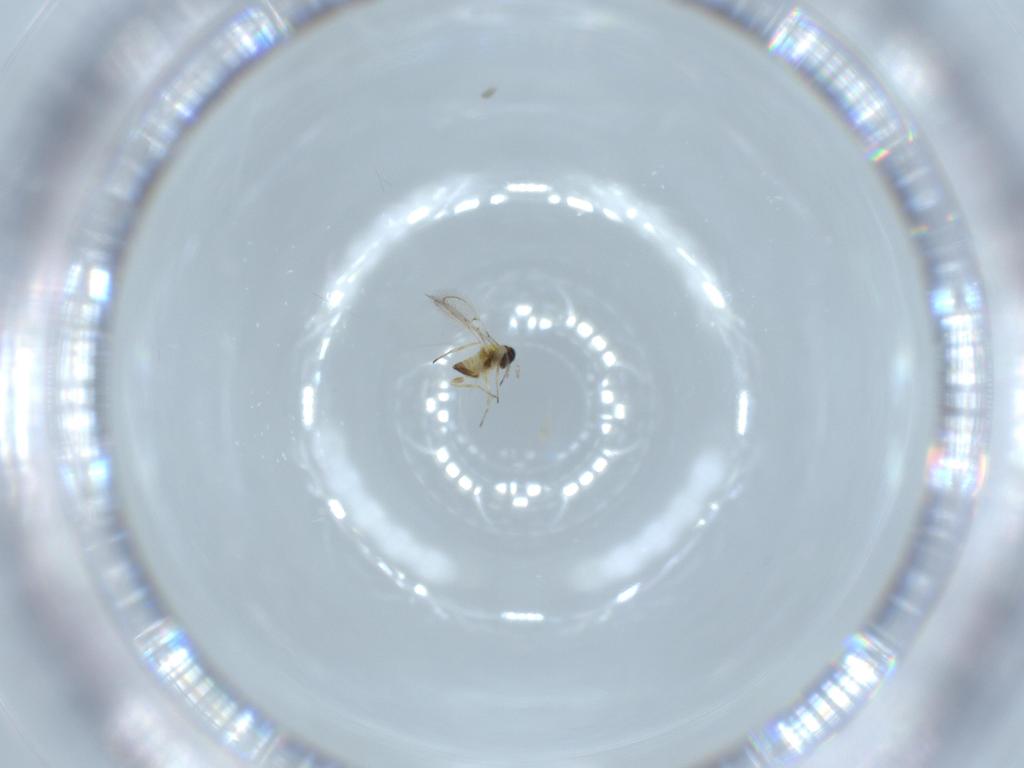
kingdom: Animalia
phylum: Arthropoda
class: Insecta
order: Hymenoptera
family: Trichogrammatidae
